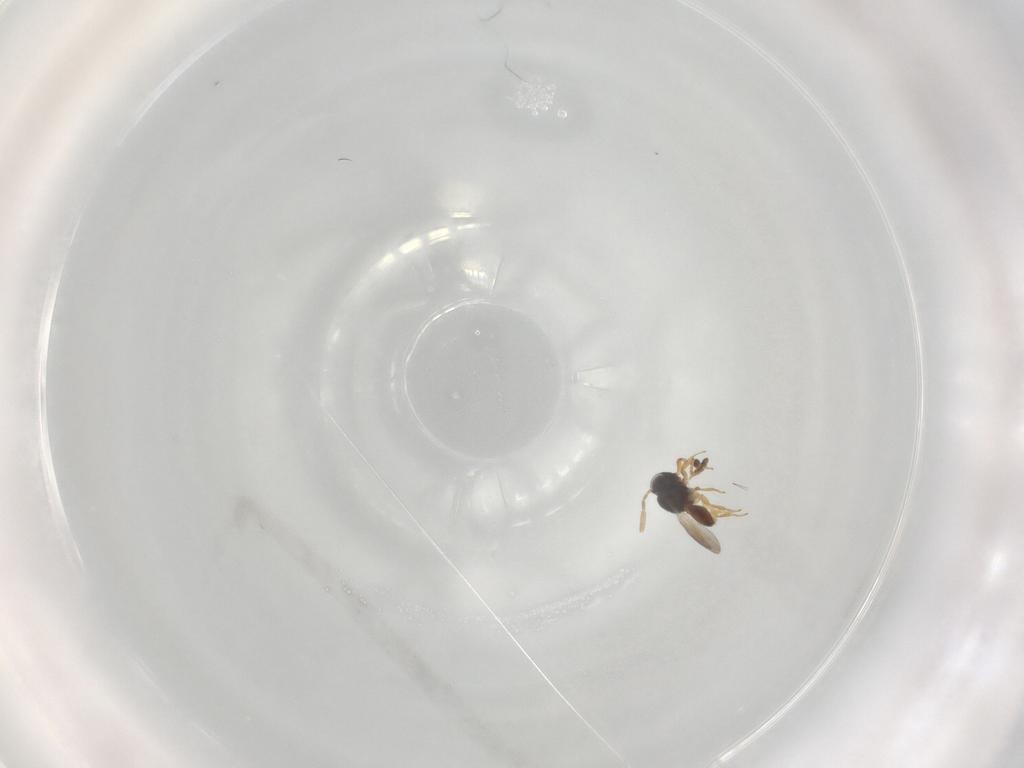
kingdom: Animalia
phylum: Arthropoda
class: Insecta
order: Hymenoptera
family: Scelionidae
